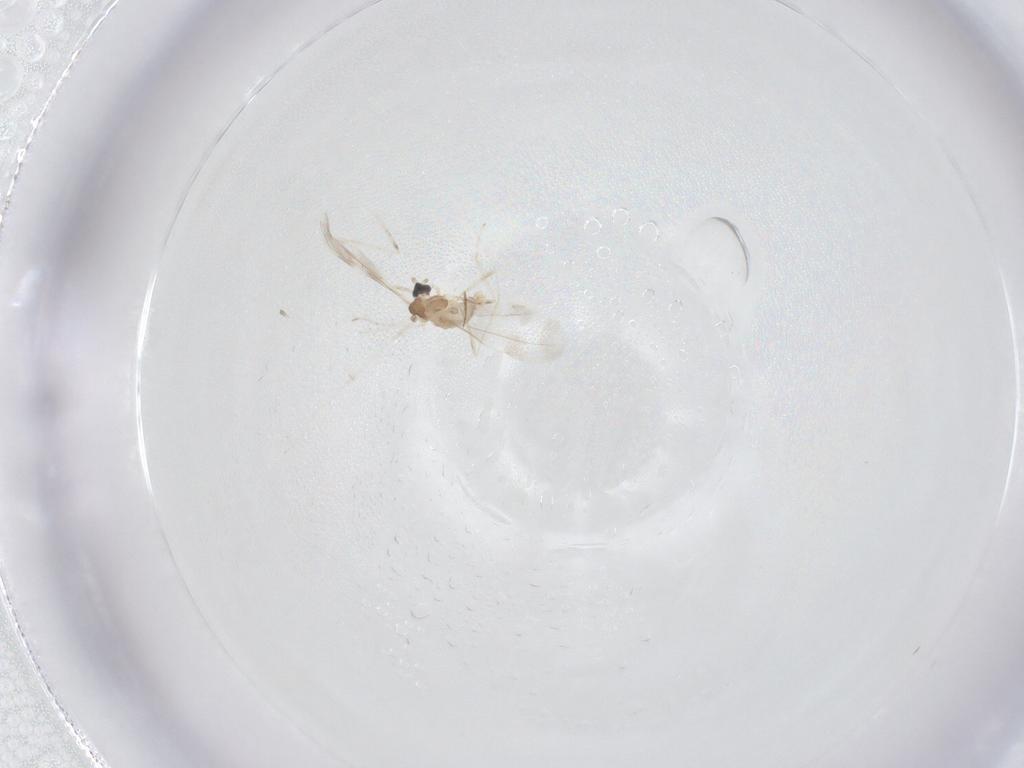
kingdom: Animalia
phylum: Arthropoda
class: Insecta
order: Diptera
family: Cecidomyiidae
